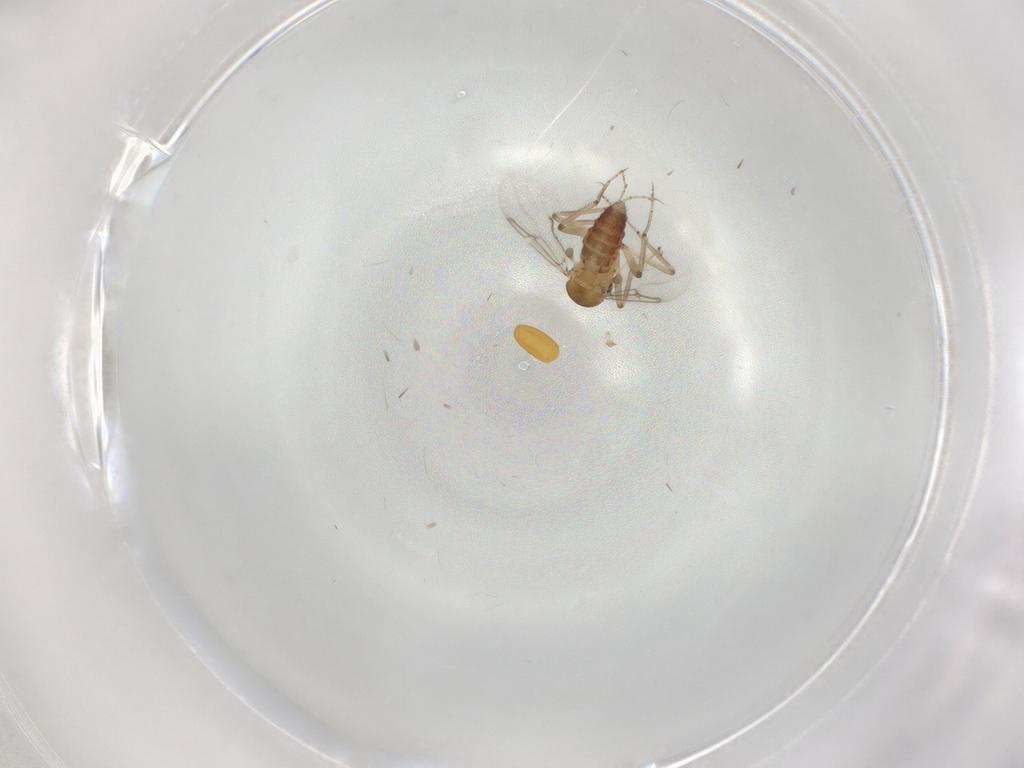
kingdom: Animalia
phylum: Arthropoda
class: Insecta
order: Diptera
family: Ceratopogonidae
